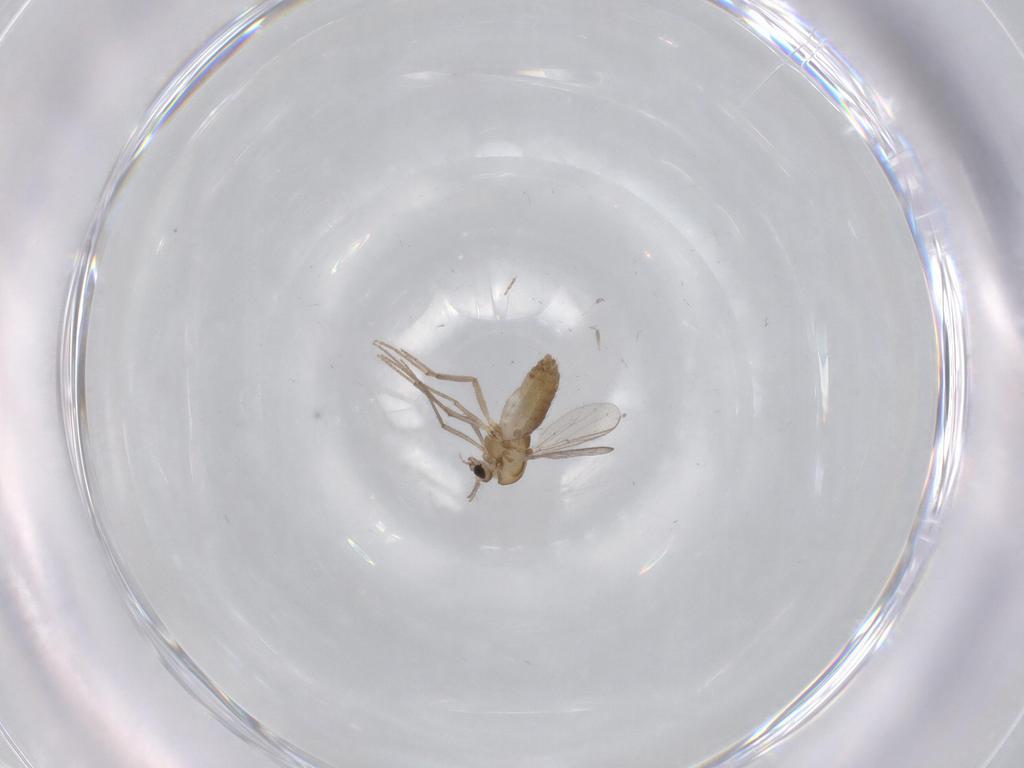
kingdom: Animalia
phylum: Arthropoda
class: Insecta
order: Diptera
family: Chironomidae
